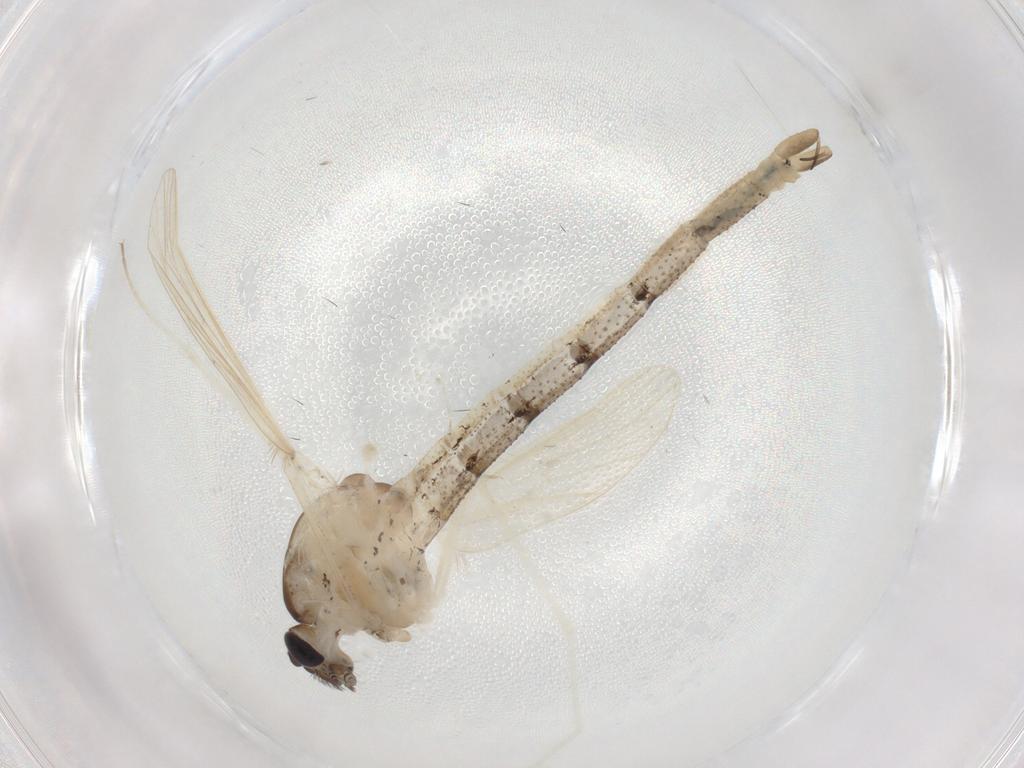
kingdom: Animalia
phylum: Arthropoda
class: Insecta
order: Diptera
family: Chaoboridae
